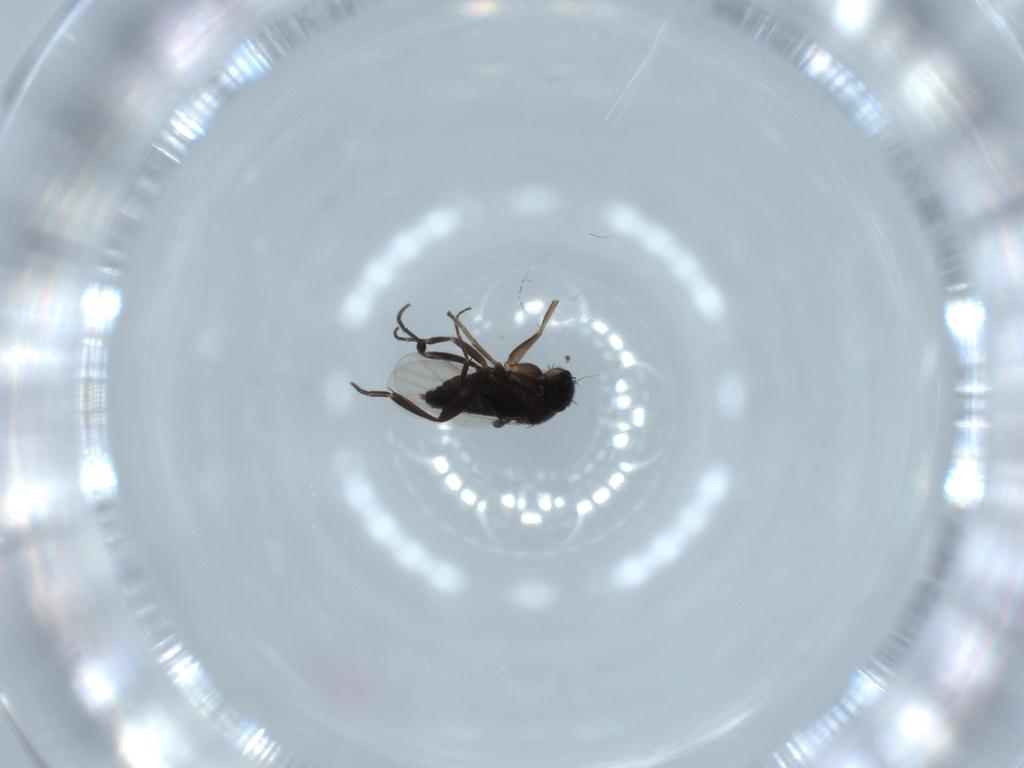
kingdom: Animalia
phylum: Arthropoda
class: Insecta
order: Diptera
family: Phoridae
